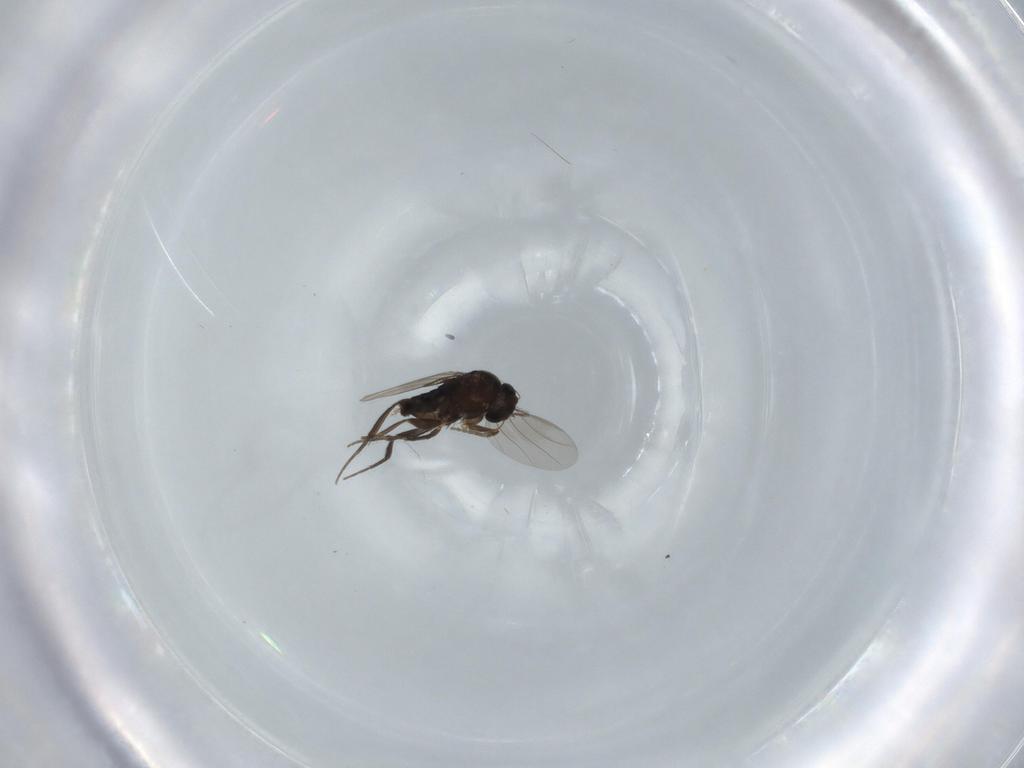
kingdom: Animalia
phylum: Arthropoda
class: Insecta
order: Diptera
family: Phoridae
